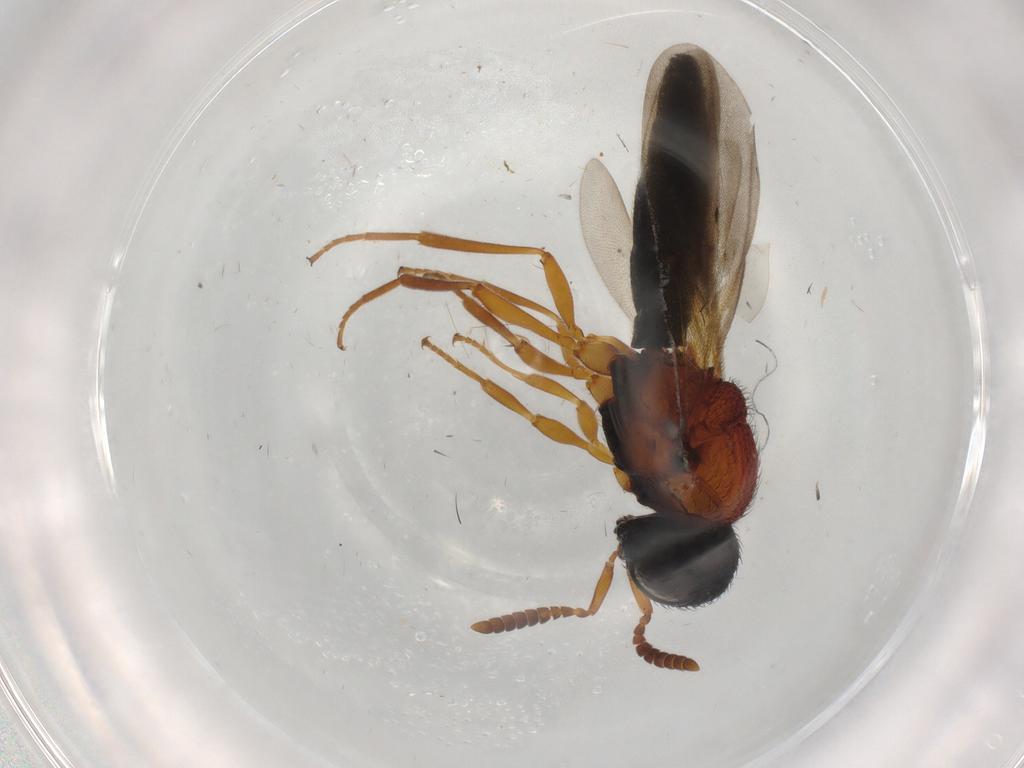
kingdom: Animalia
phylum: Arthropoda
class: Insecta
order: Hymenoptera
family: Scelionidae
